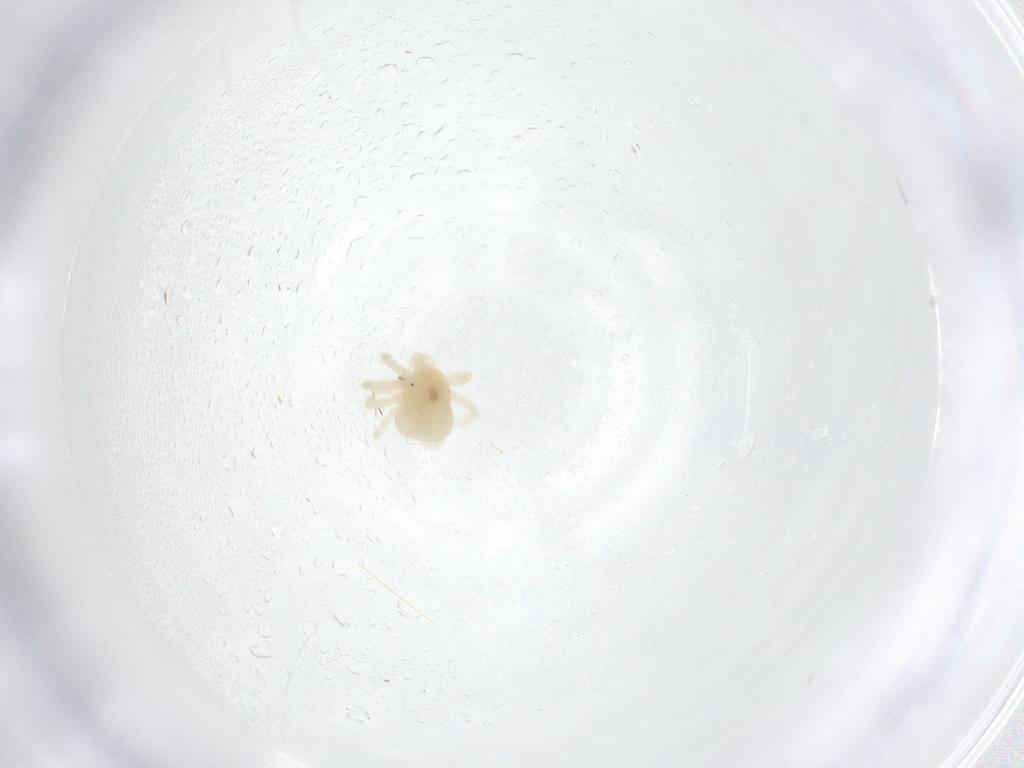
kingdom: Animalia
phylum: Arthropoda
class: Arachnida
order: Trombidiformes
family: Anystidae
